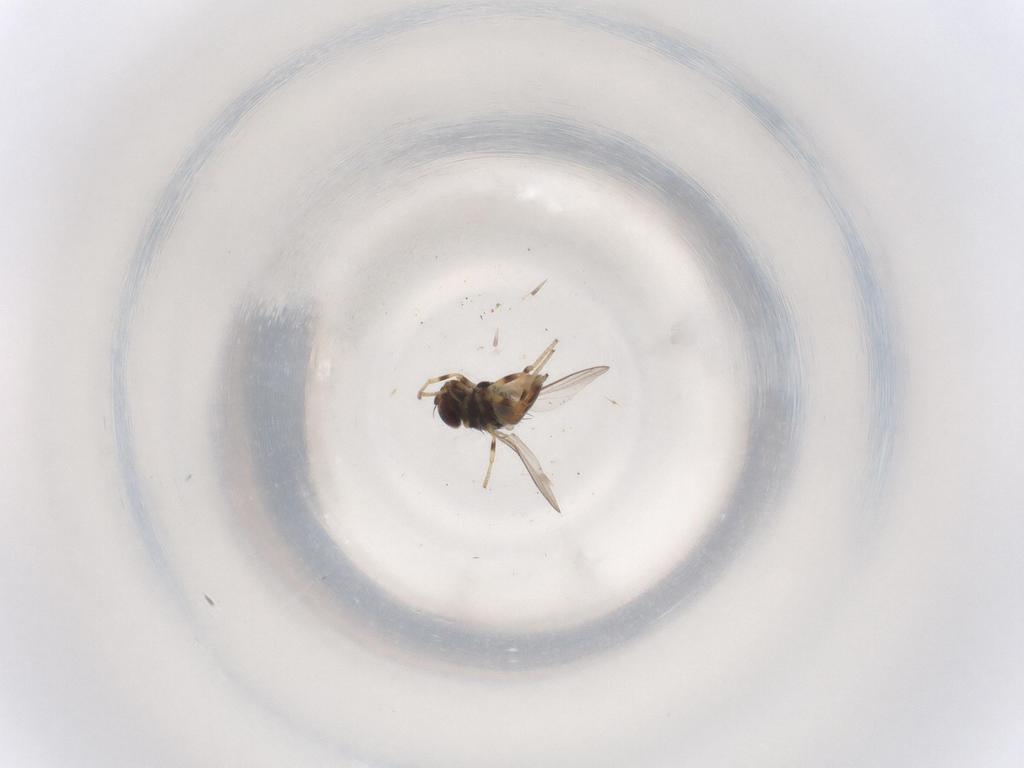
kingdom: Animalia
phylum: Arthropoda
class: Insecta
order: Diptera
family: Chloropidae
